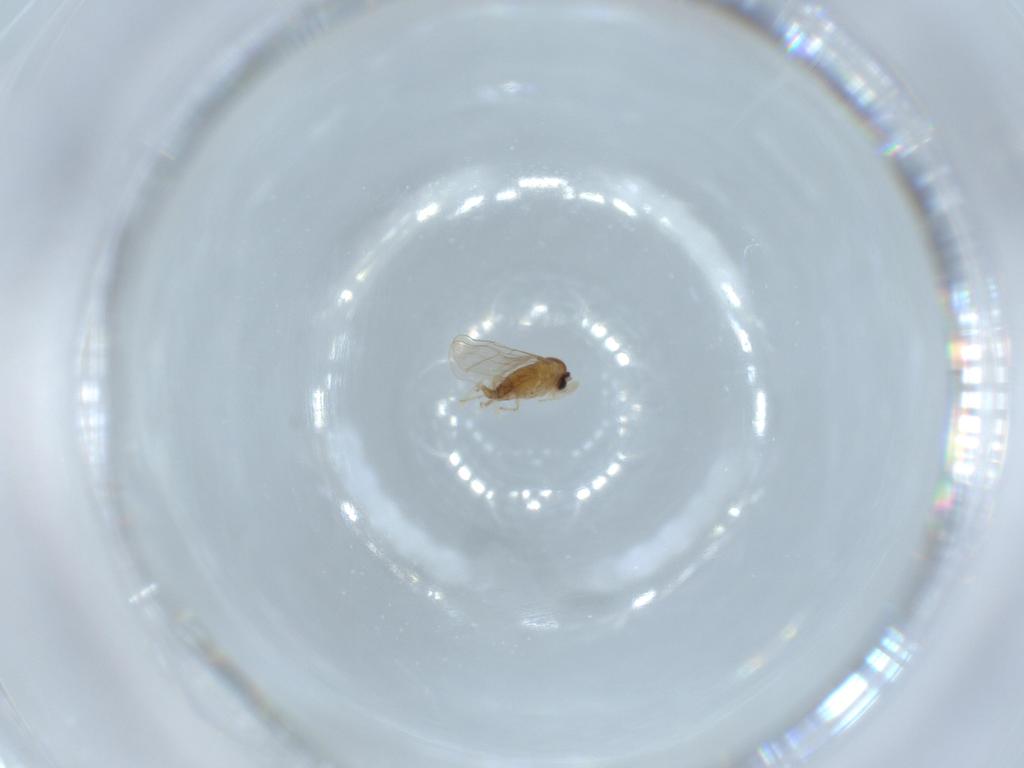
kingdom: Animalia
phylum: Arthropoda
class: Insecta
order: Diptera
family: Cecidomyiidae
